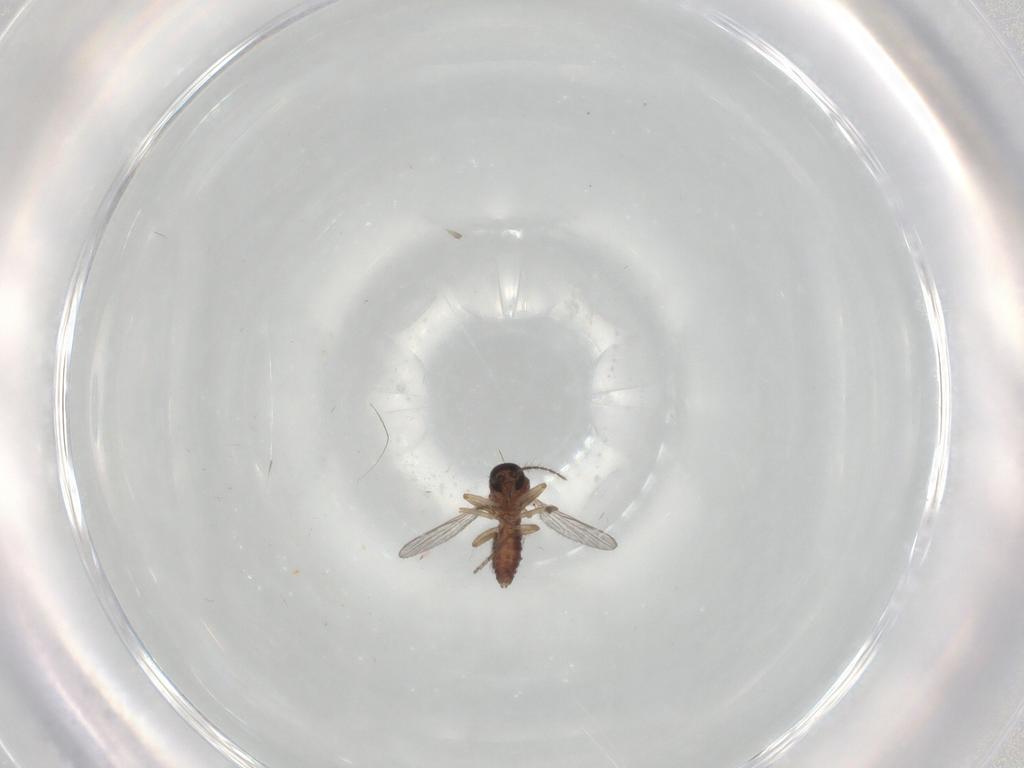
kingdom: Animalia
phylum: Arthropoda
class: Insecta
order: Diptera
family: Ceratopogonidae
